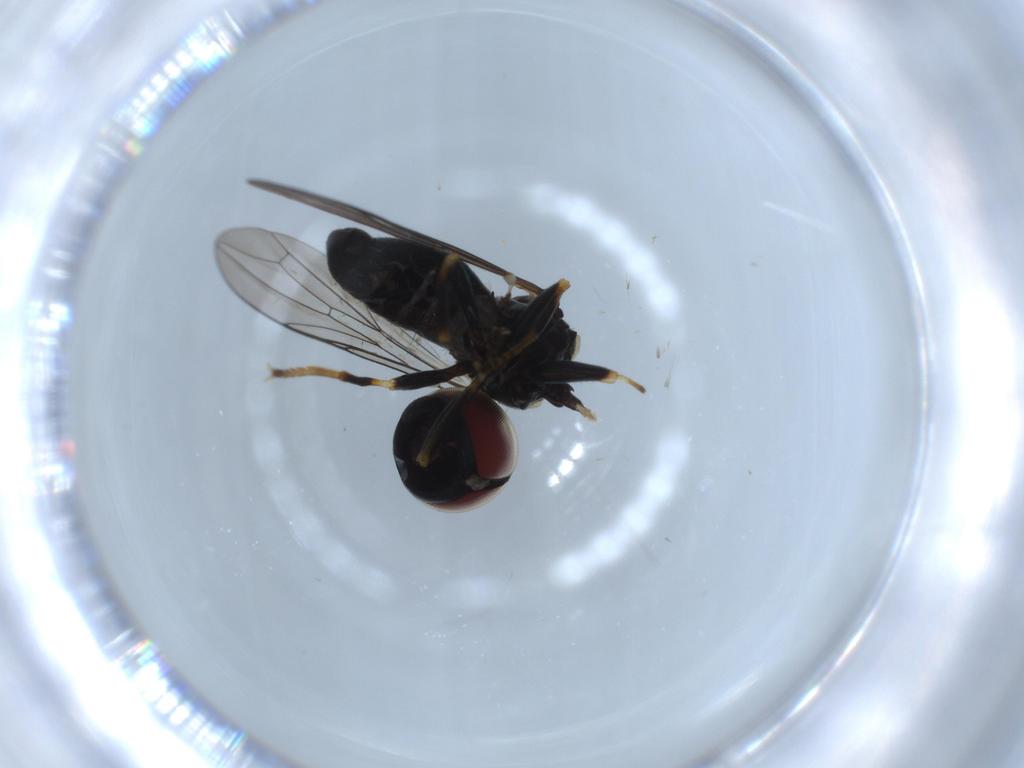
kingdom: Animalia
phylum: Arthropoda
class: Insecta
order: Diptera
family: Pipunculidae
